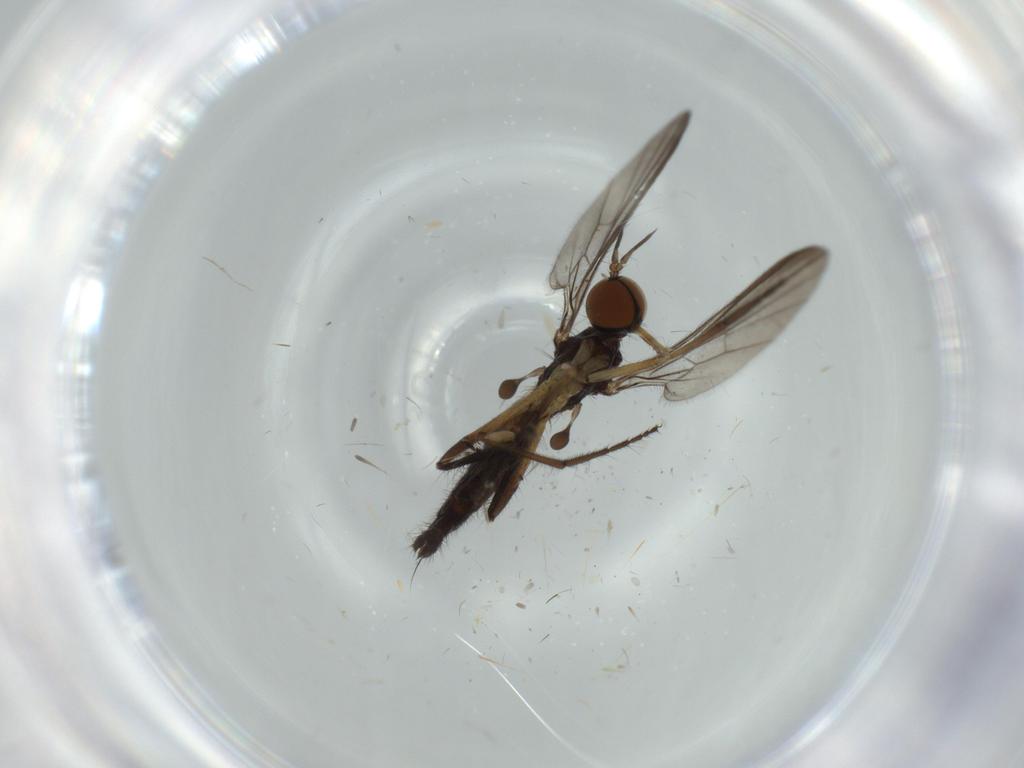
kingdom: Animalia
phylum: Arthropoda
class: Insecta
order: Diptera
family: Empididae
